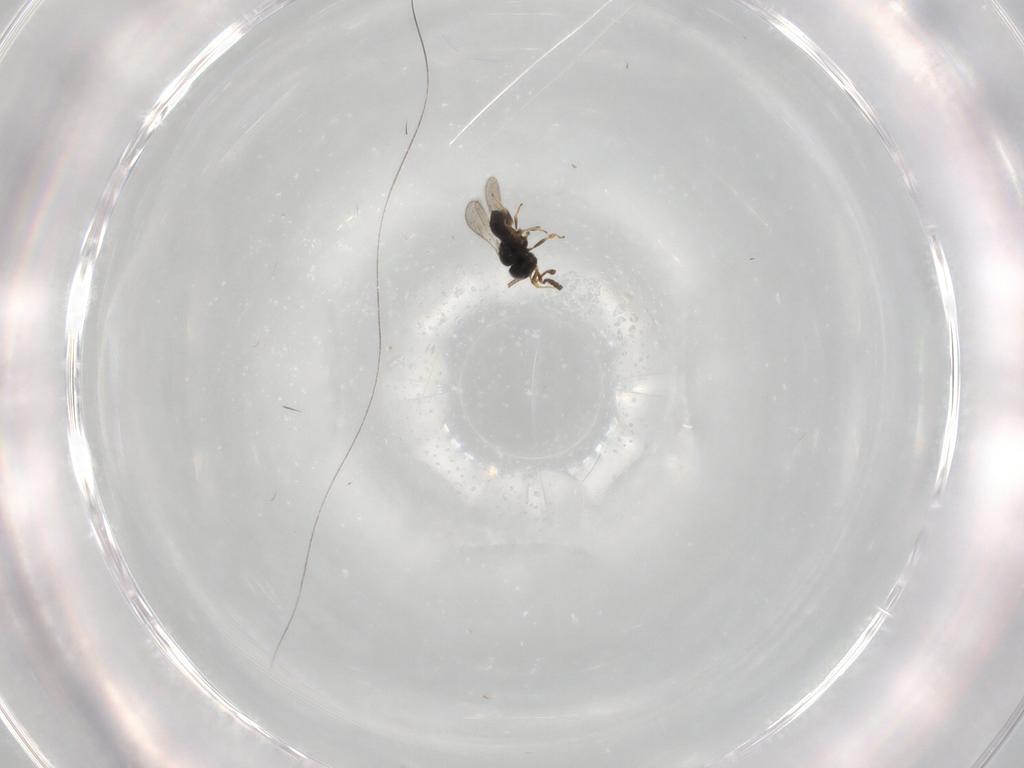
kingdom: Animalia
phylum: Arthropoda
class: Insecta
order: Hymenoptera
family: Scelionidae
